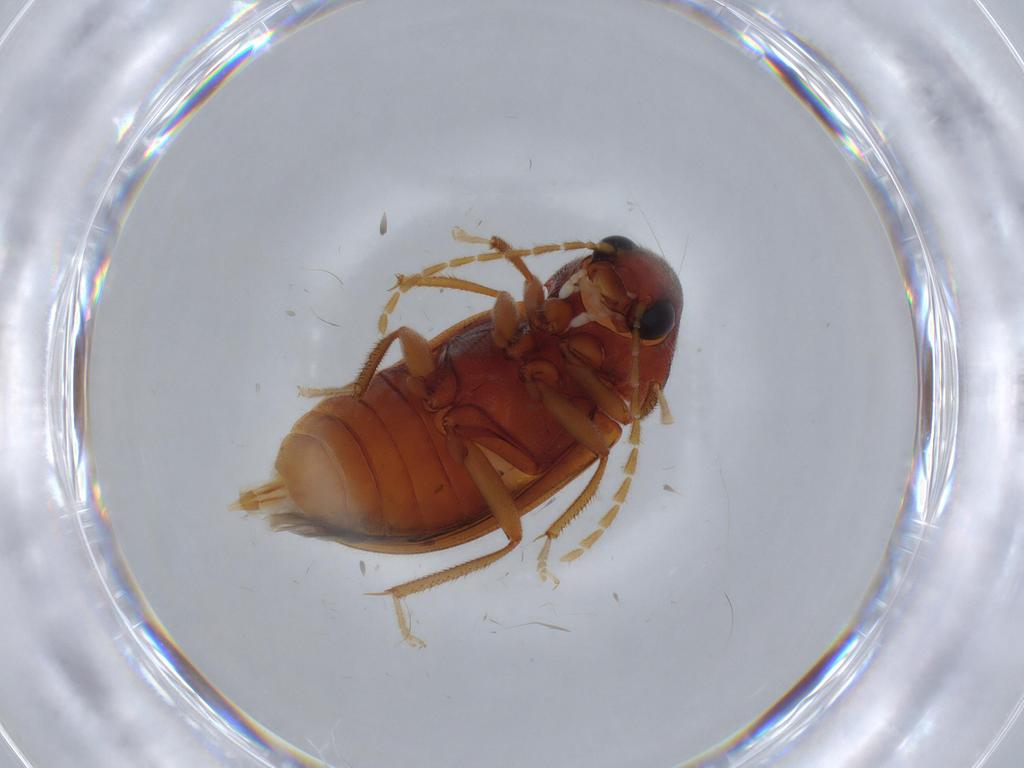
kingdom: Animalia
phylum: Arthropoda
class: Insecta
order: Coleoptera
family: Ptilodactylidae
